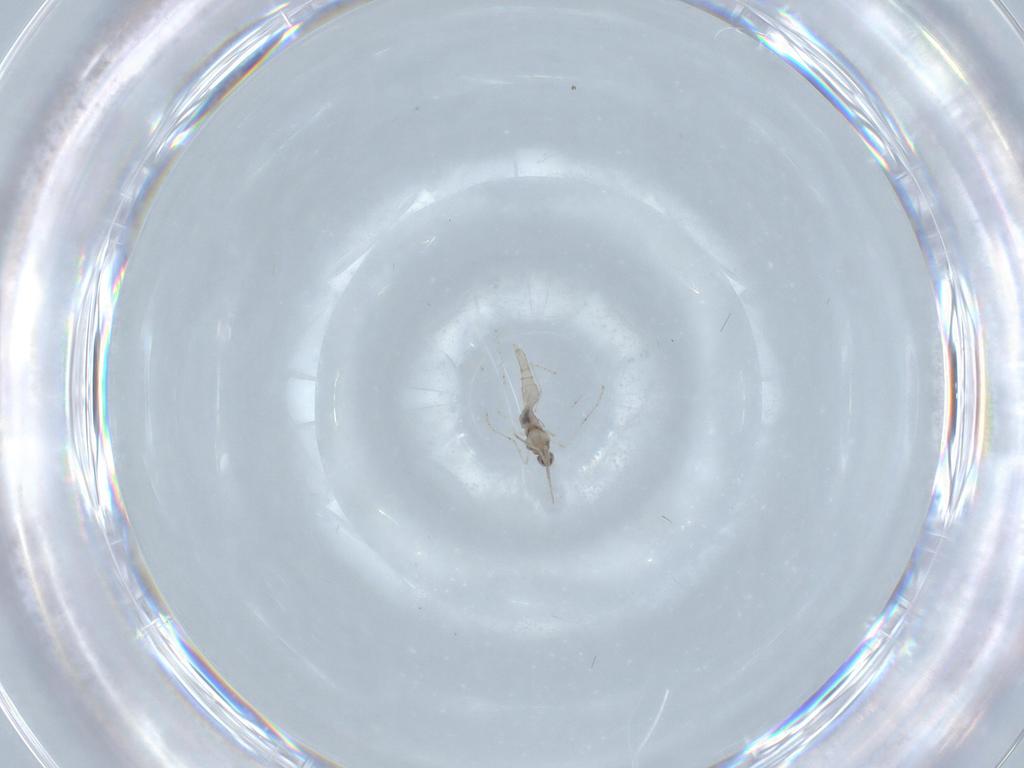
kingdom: Animalia
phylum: Arthropoda
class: Insecta
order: Diptera
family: Cecidomyiidae
